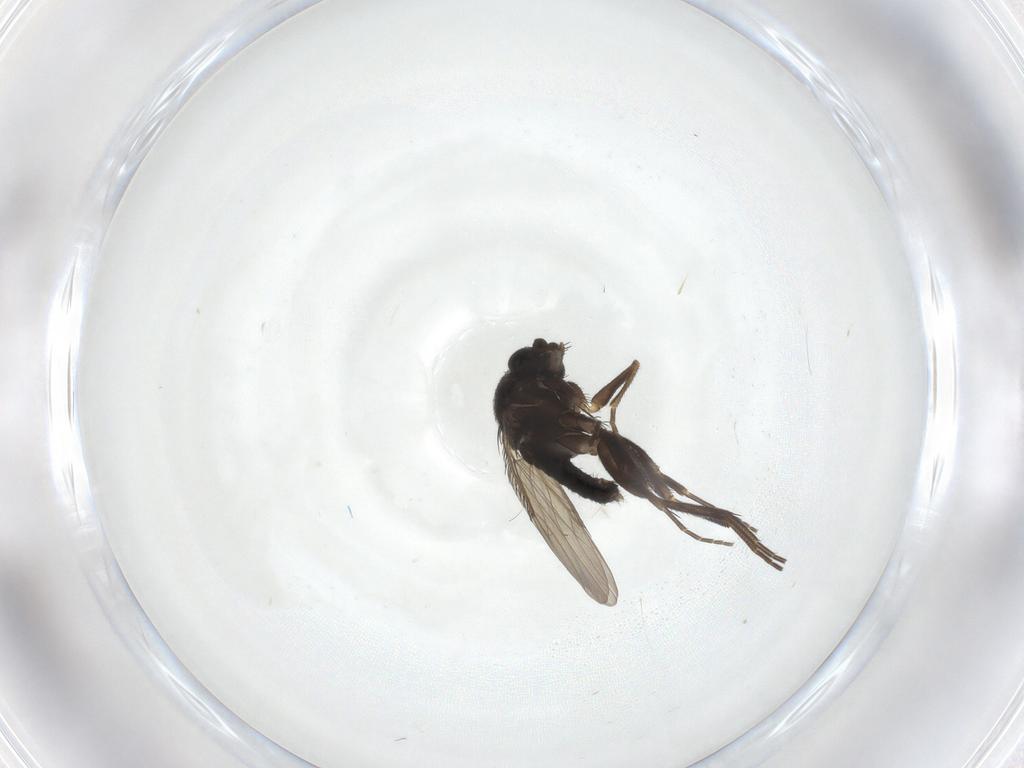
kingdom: Animalia
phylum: Arthropoda
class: Insecta
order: Diptera
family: Phoridae
